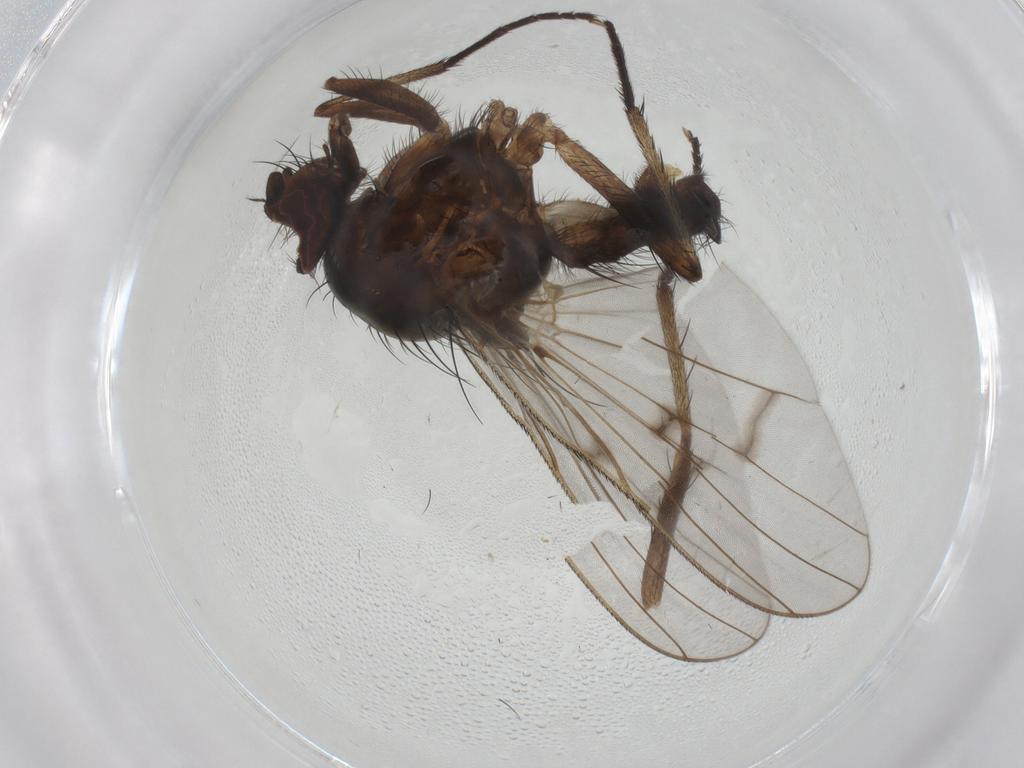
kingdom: Animalia
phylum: Arthropoda
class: Insecta
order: Diptera
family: Anthomyiidae
